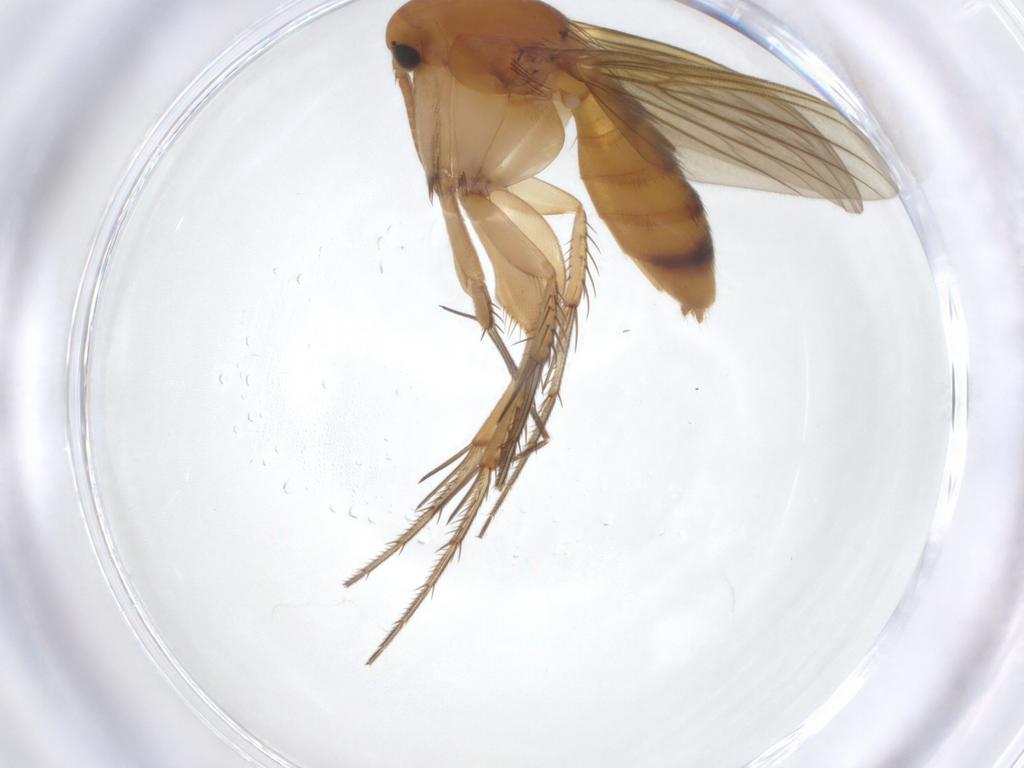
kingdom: Animalia
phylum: Arthropoda
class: Insecta
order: Diptera
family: Mycetophilidae
